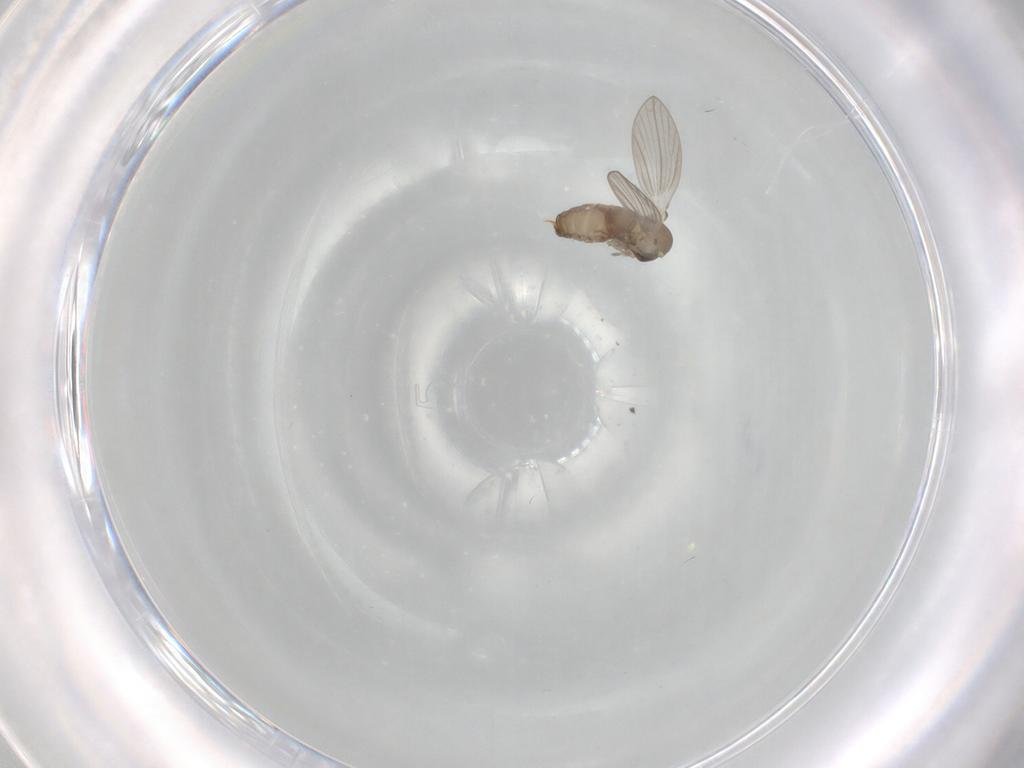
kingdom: Animalia
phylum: Arthropoda
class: Insecta
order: Diptera
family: Psychodidae
